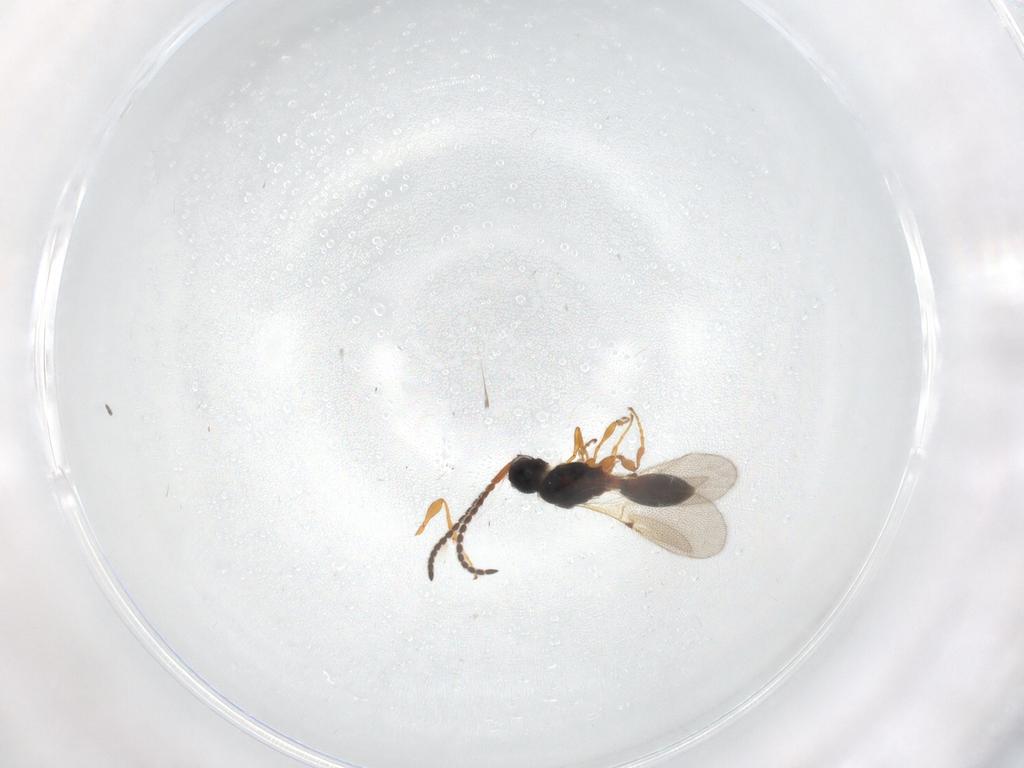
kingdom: Animalia
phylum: Arthropoda
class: Insecta
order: Hymenoptera
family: Diapriidae
